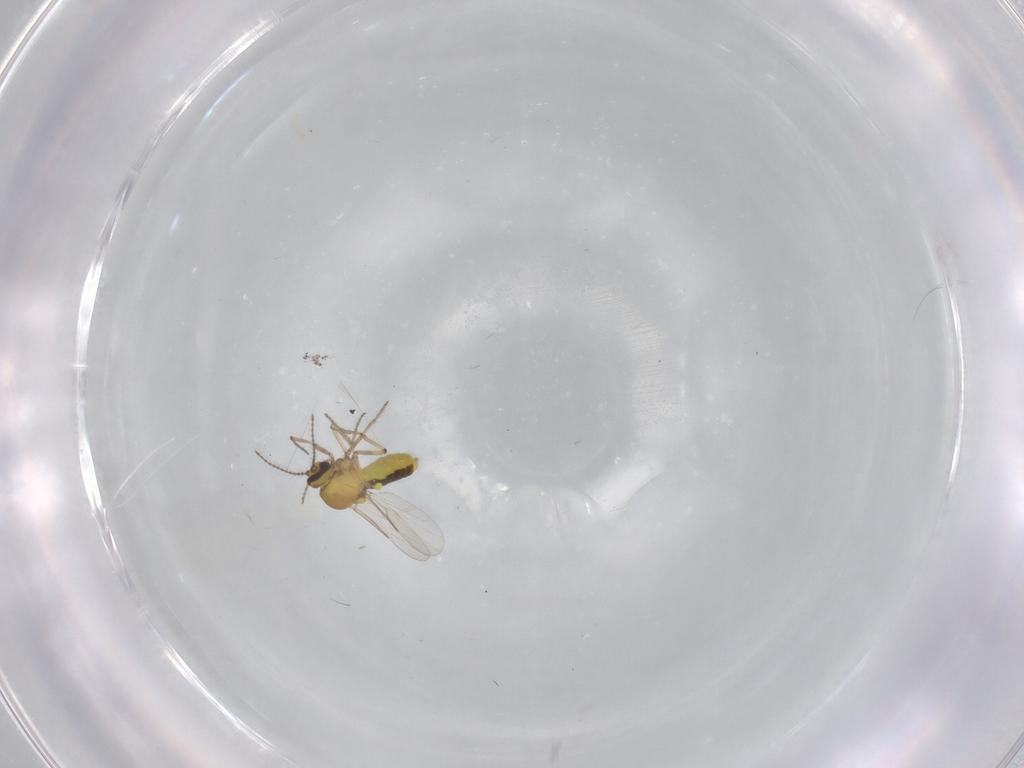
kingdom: Animalia
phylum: Arthropoda
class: Insecta
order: Diptera
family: Ceratopogonidae
